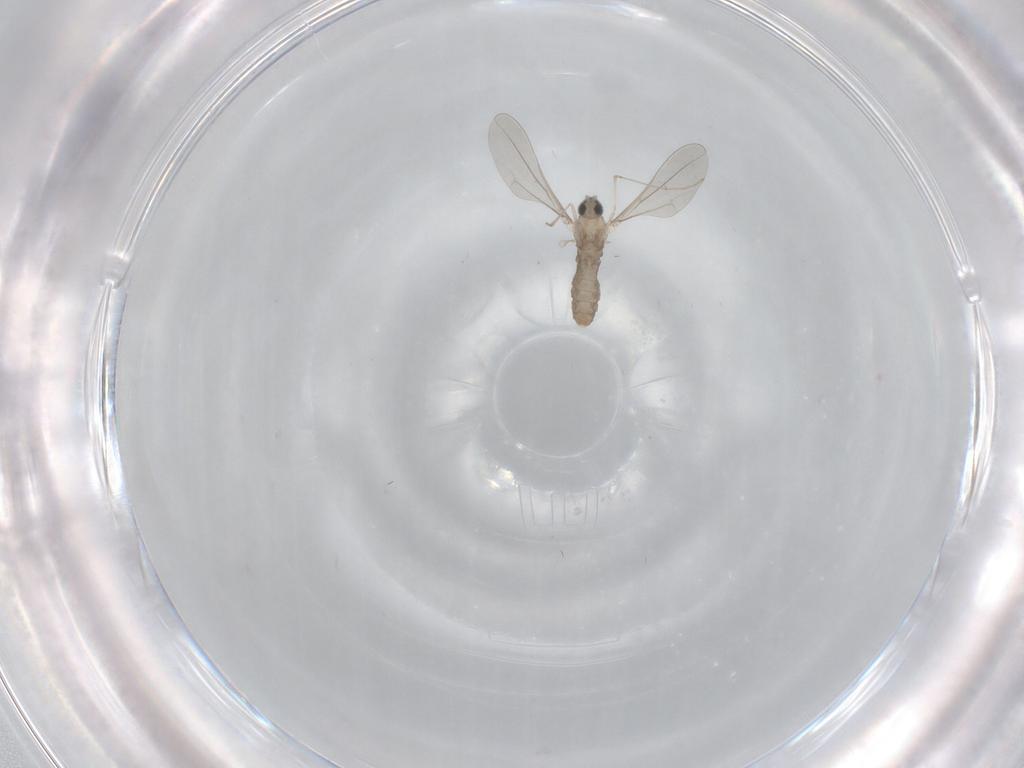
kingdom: Animalia
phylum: Arthropoda
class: Insecta
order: Diptera
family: Cecidomyiidae
